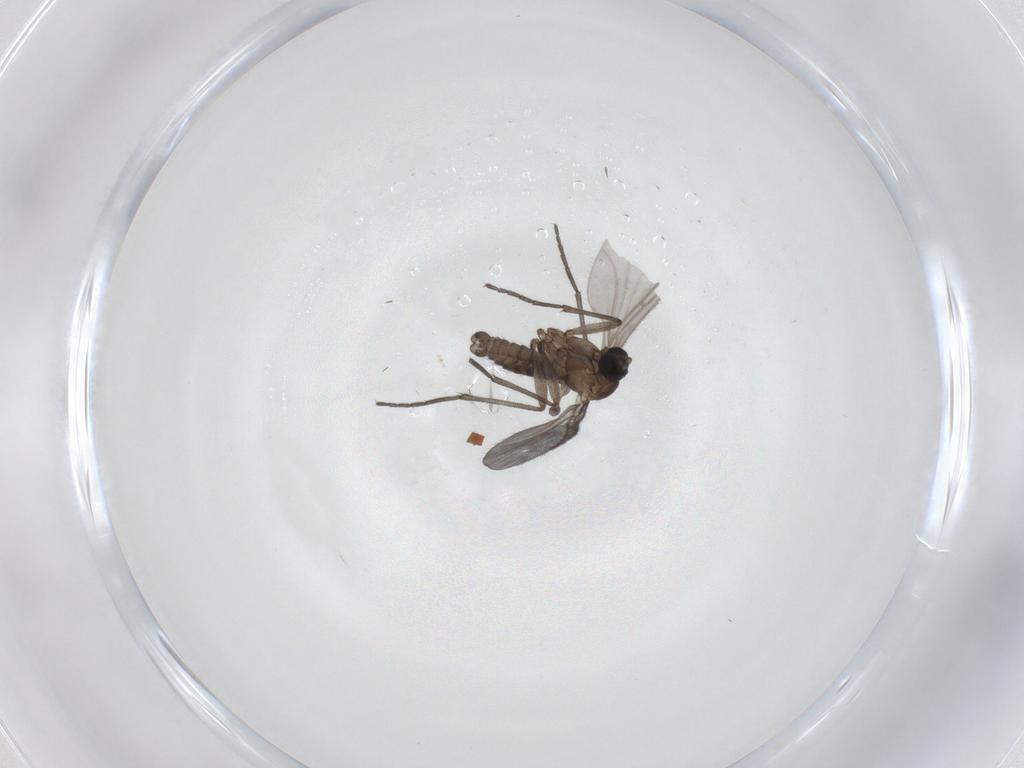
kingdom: Animalia
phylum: Arthropoda
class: Insecta
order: Diptera
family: Sciaridae
